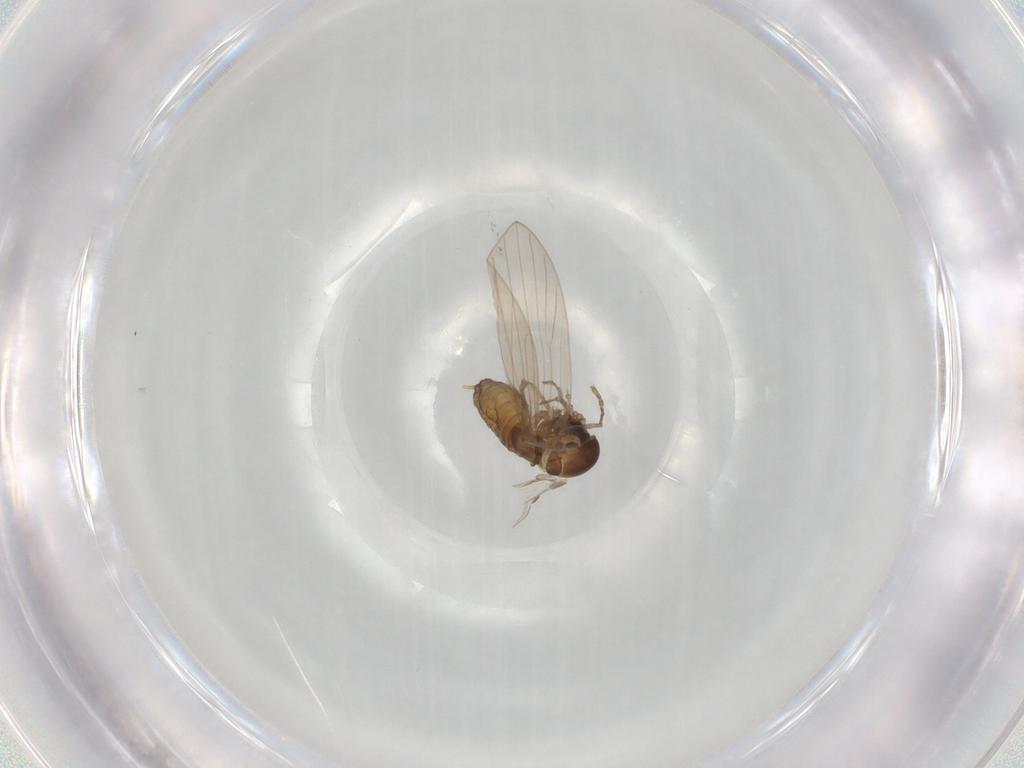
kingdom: Animalia
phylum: Arthropoda
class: Insecta
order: Diptera
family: Psychodidae
